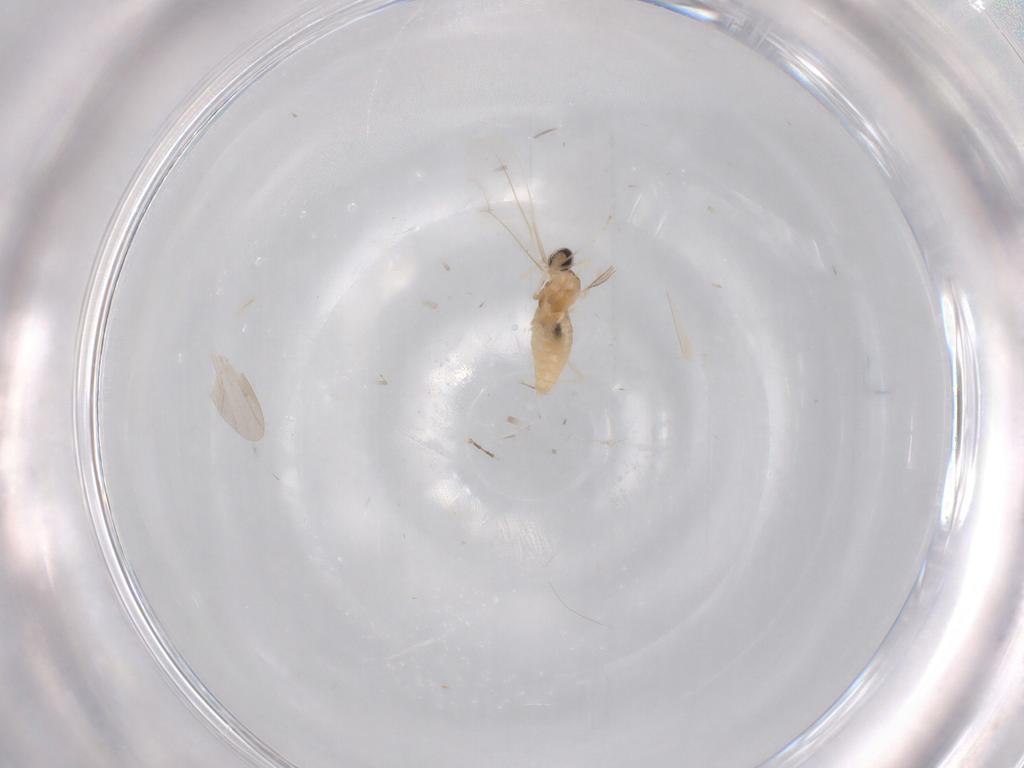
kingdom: Animalia
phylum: Arthropoda
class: Insecta
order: Diptera
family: Cecidomyiidae
